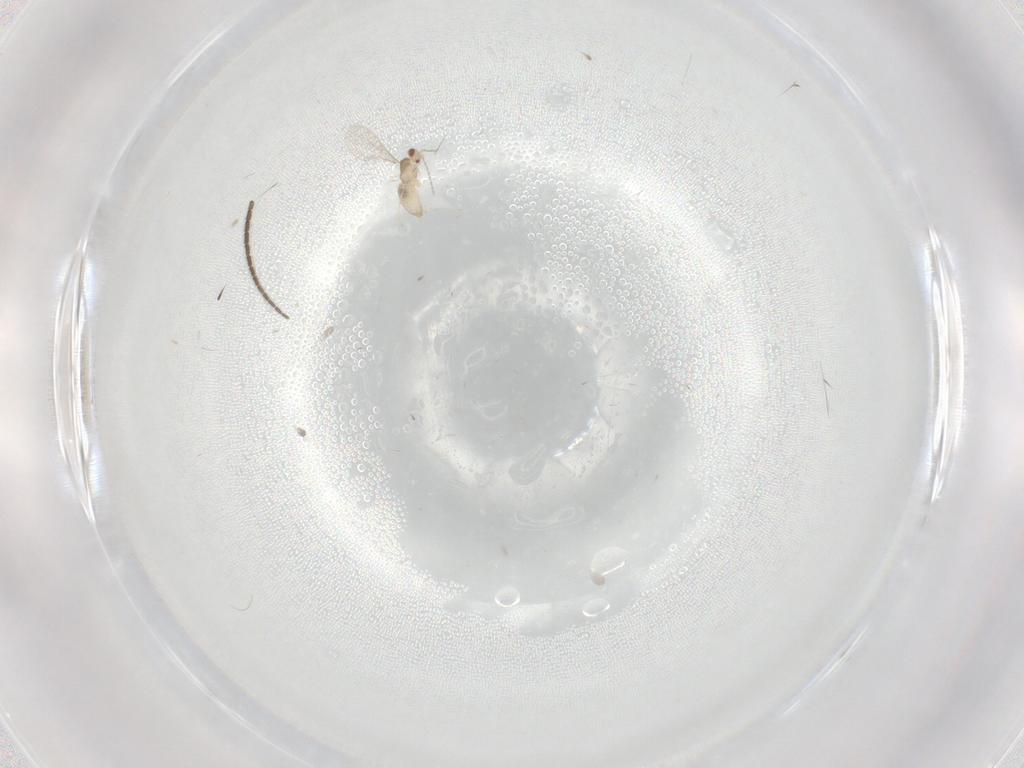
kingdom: Animalia
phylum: Arthropoda
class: Insecta
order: Diptera
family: Cecidomyiidae
